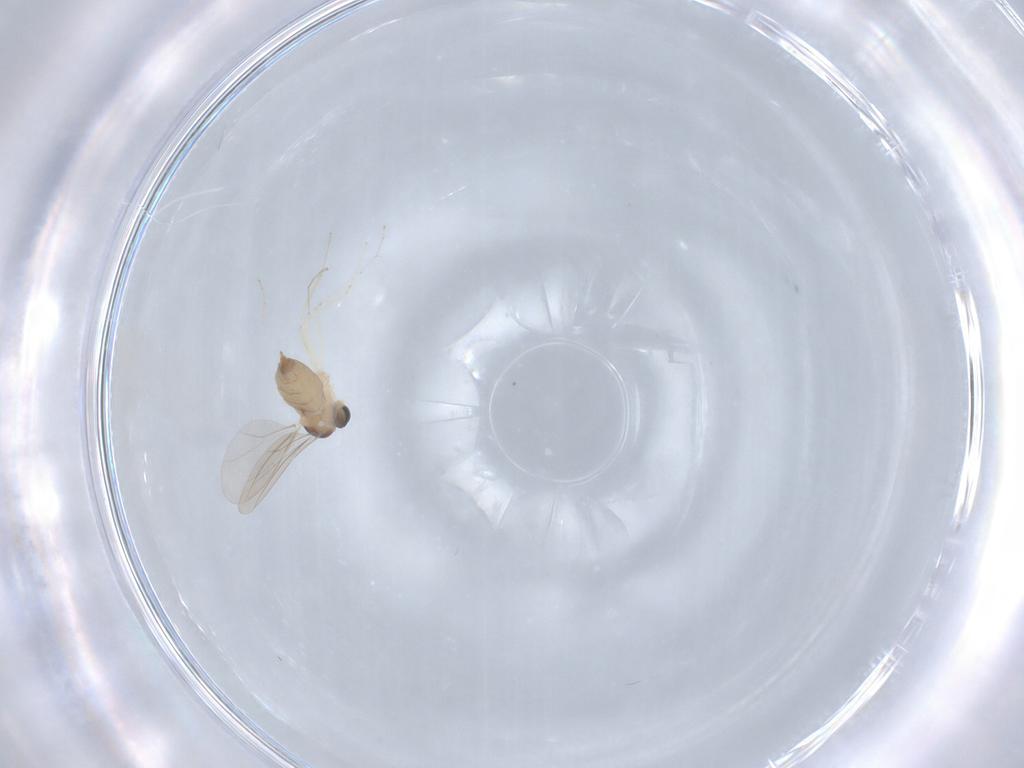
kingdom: Animalia
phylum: Arthropoda
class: Insecta
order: Diptera
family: Cecidomyiidae
